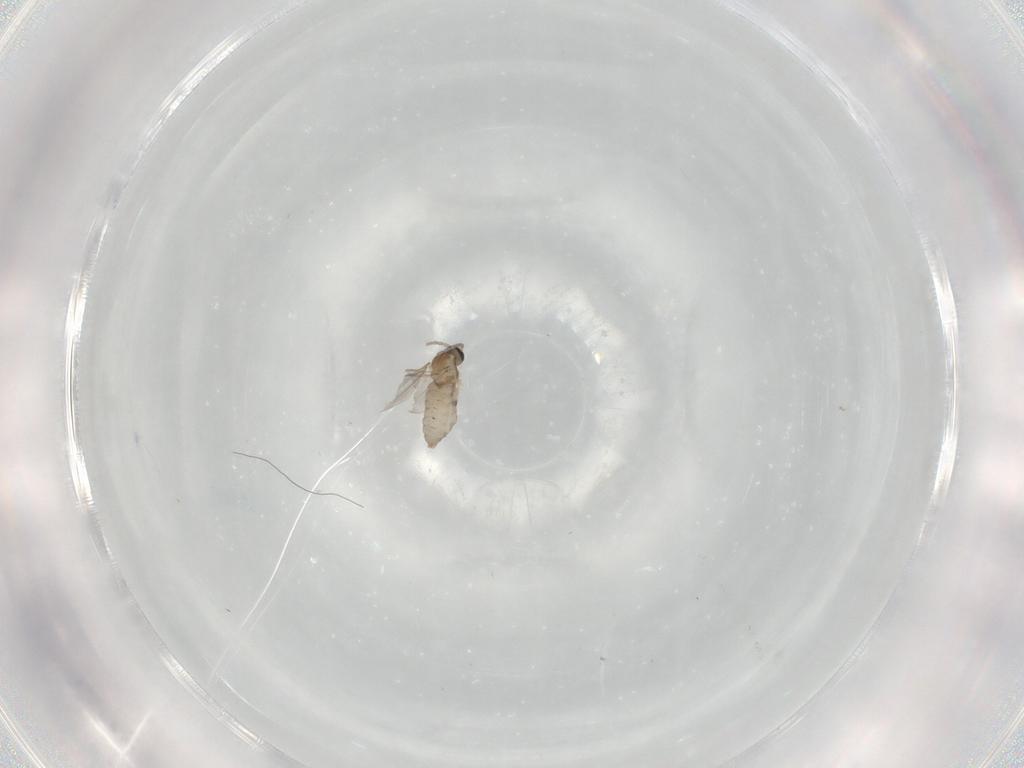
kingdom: Animalia
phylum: Arthropoda
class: Insecta
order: Diptera
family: Cecidomyiidae
